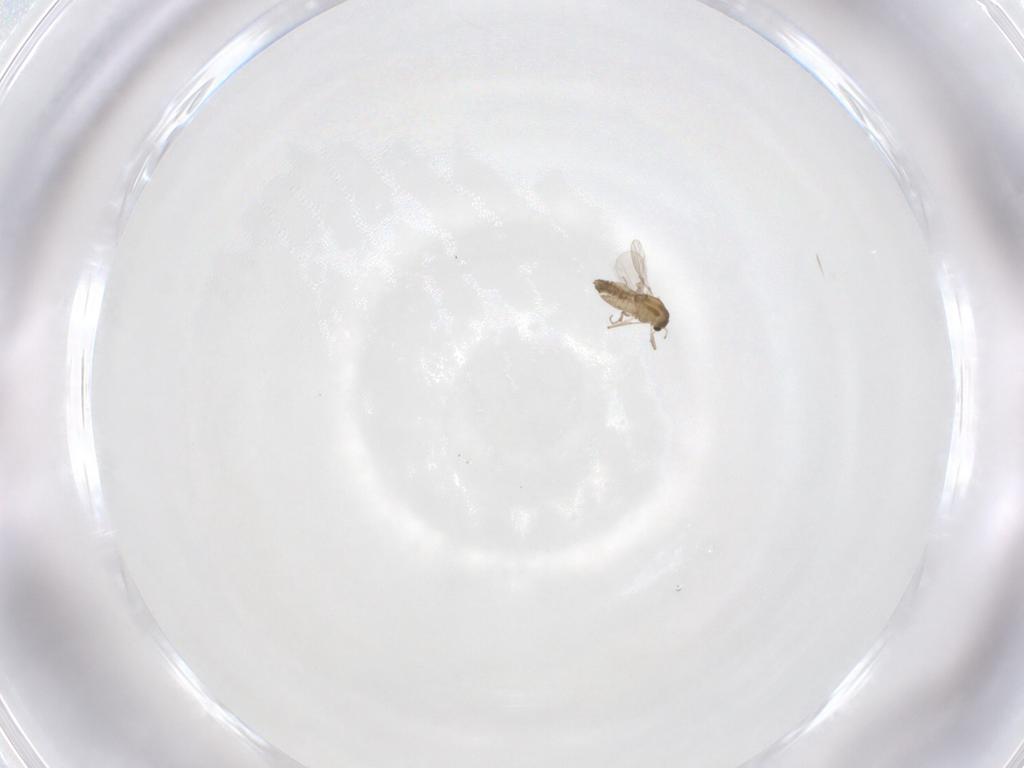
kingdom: Animalia
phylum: Arthropoda
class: Insecta
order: Diptera
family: Chironomidae
